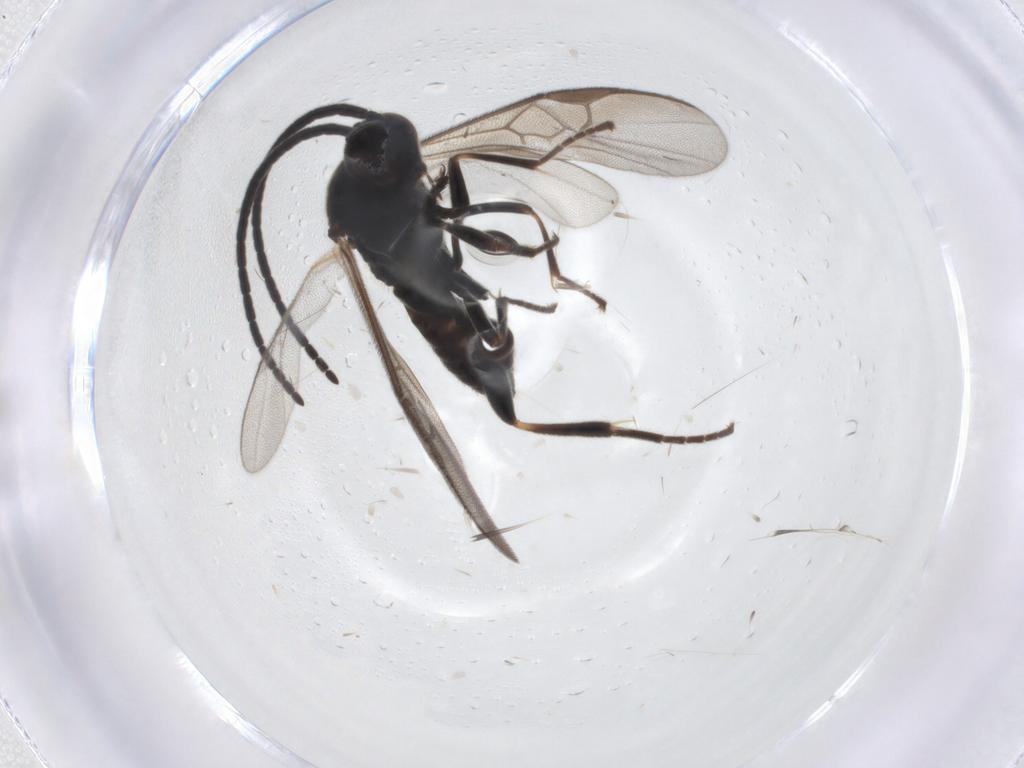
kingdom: Animalia
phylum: Arthropoda
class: Insecta
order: Hymenoptera
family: Braconidae
